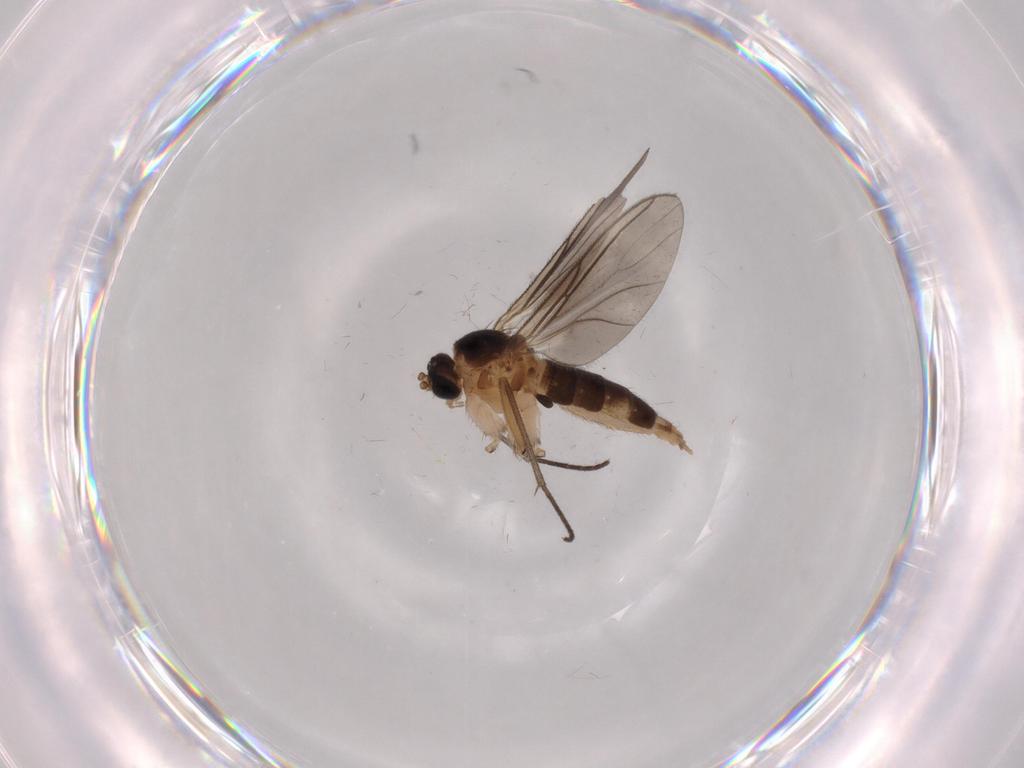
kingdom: Animalia
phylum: Arthropoda
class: Insecta
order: Diptera
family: Sciaridae
